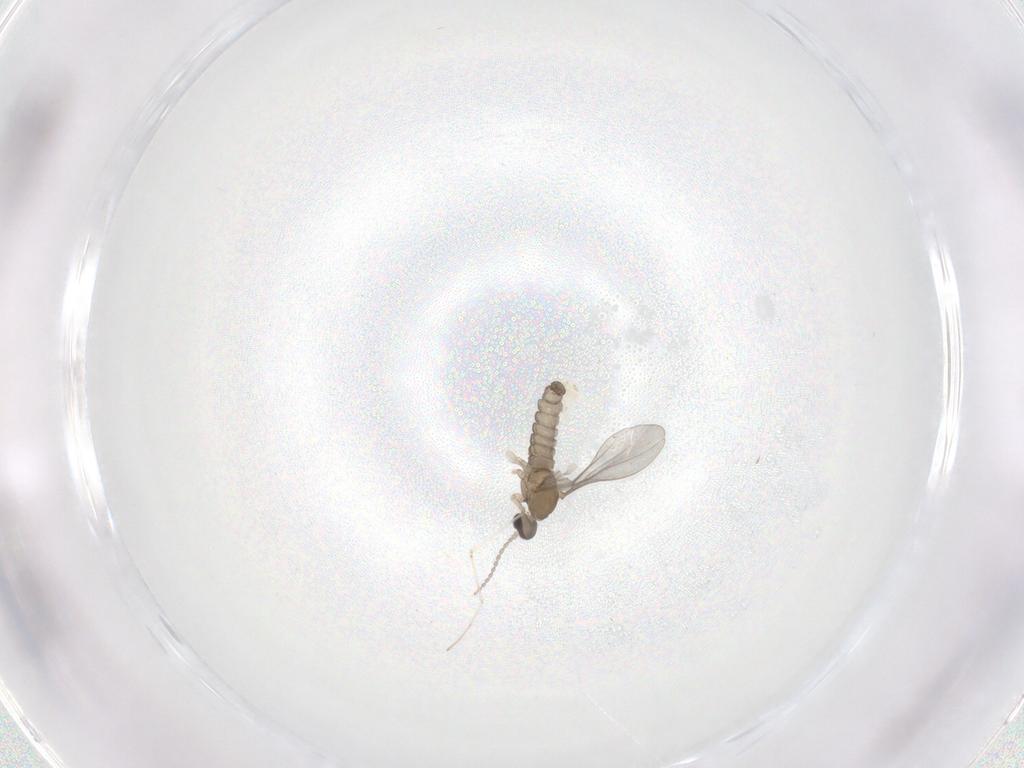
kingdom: Animalia
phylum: Arthropoda
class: Insecta
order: Diptera
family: Cecidomyiidae
